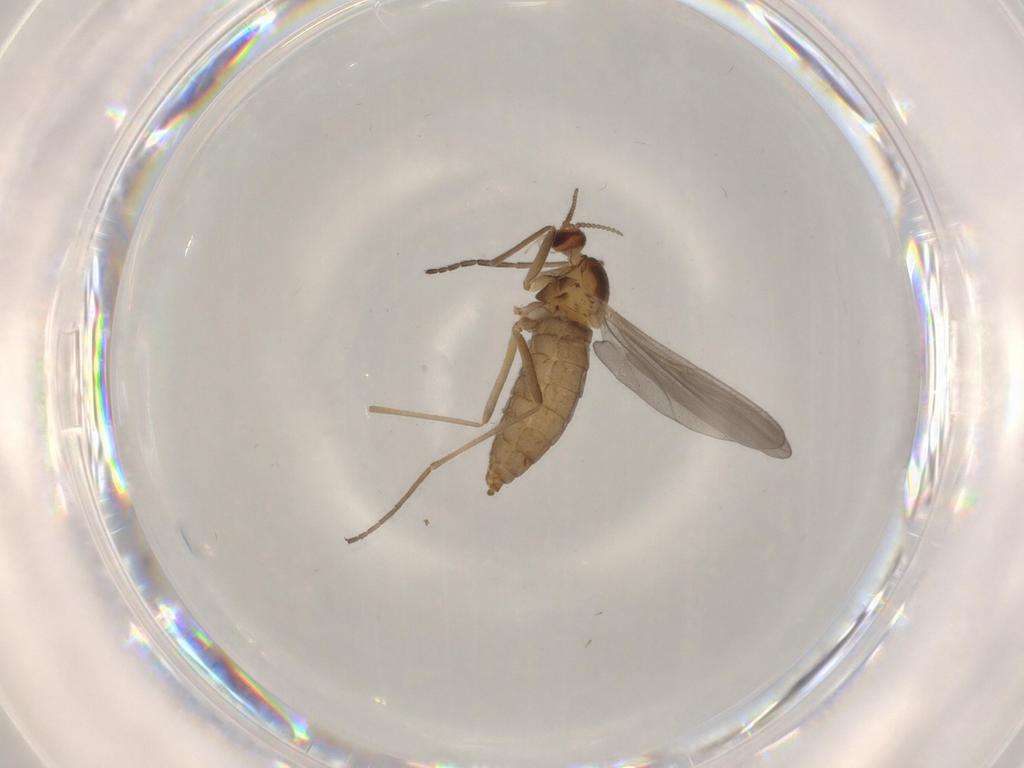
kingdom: Animalia
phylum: Arthropoda
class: Insecta
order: Diptera
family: Cecidomyiidae
